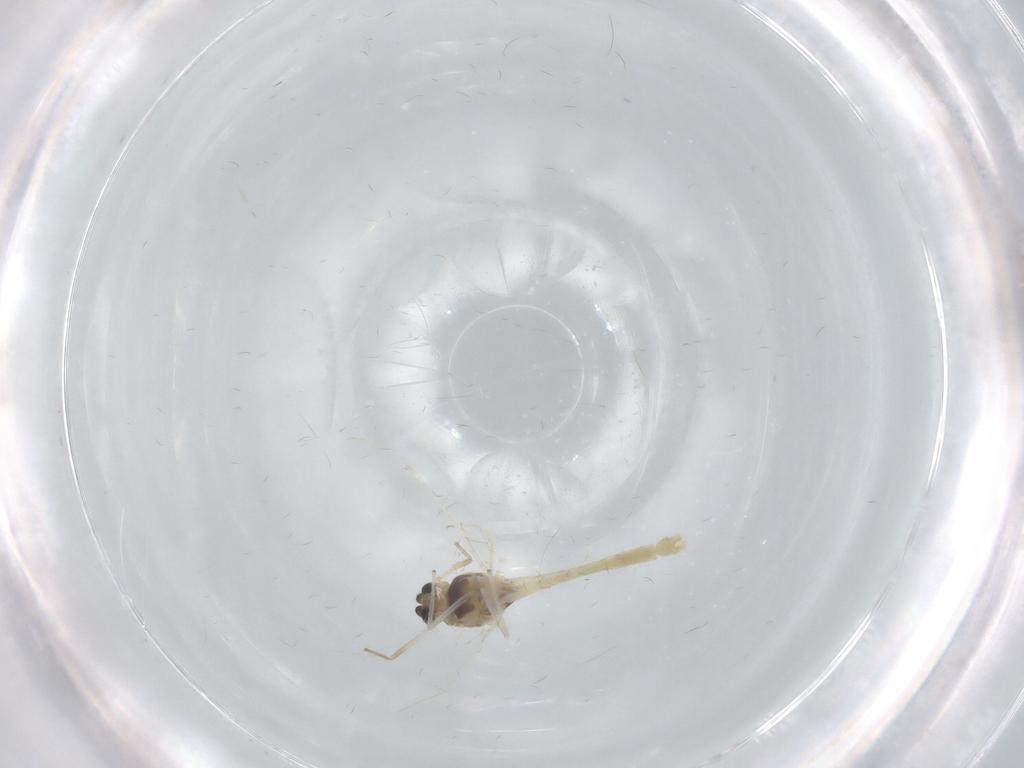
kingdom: Animalia
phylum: Arthropoda
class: Insecta
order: Diptera
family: Chironomidae
